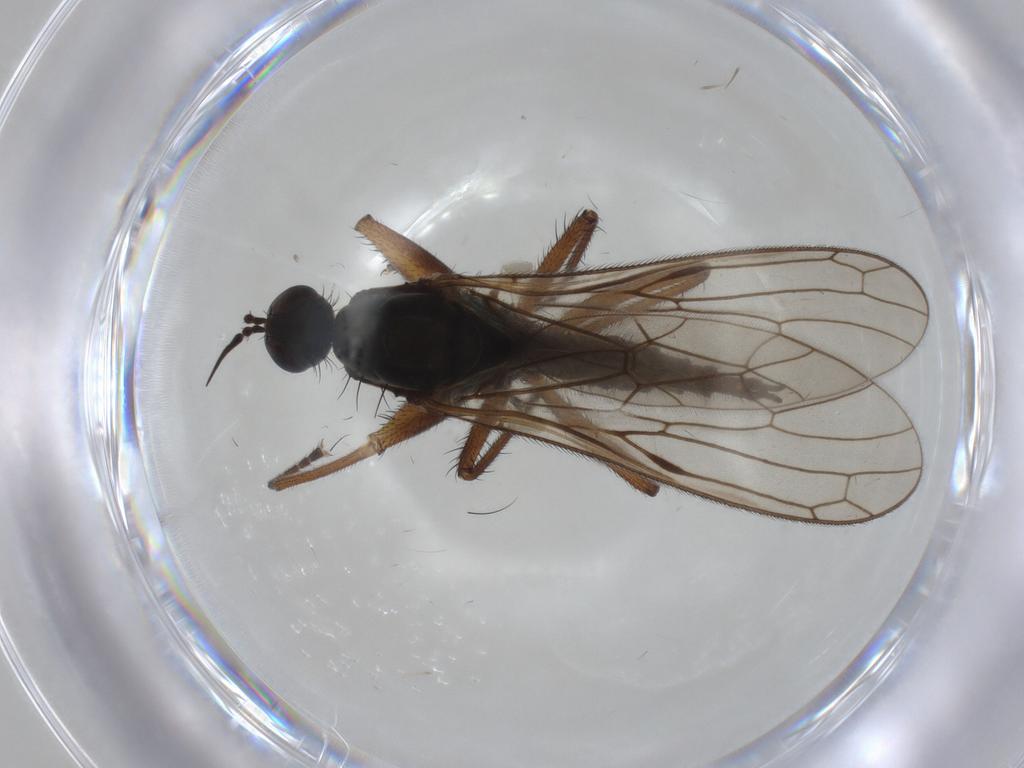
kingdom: Animalia
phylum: Arthropoda
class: Insecta
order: Diptera
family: Empididae
